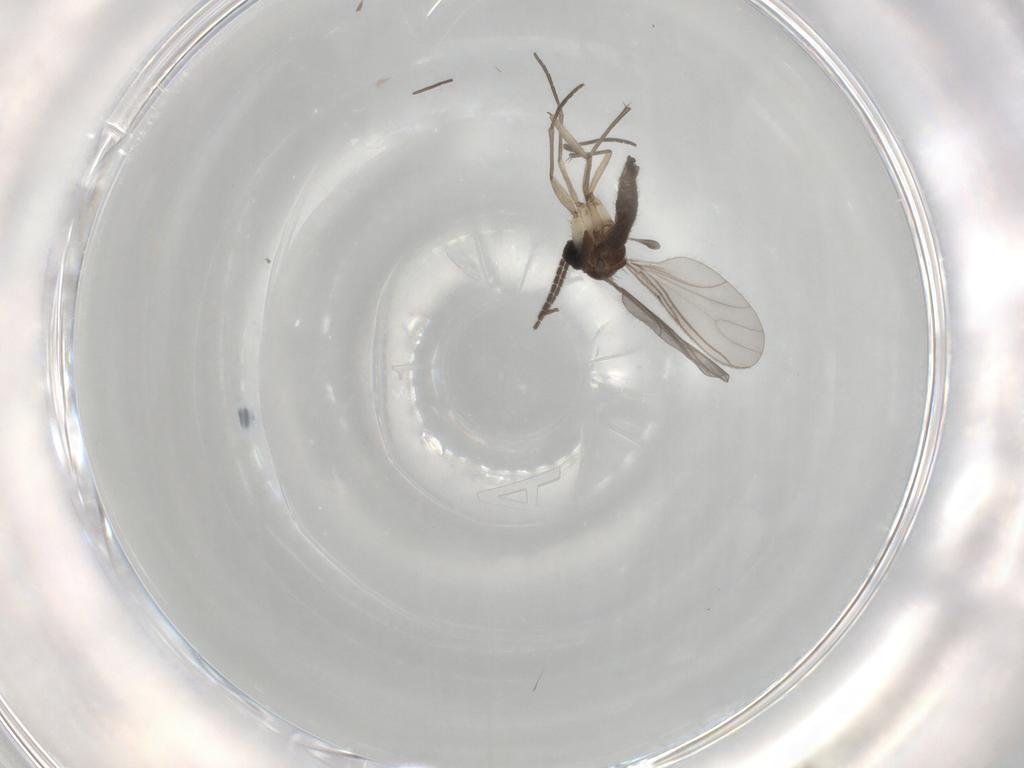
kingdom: Animalia
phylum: Arthropoda
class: Insecta
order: Diptera
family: Sciaridae
